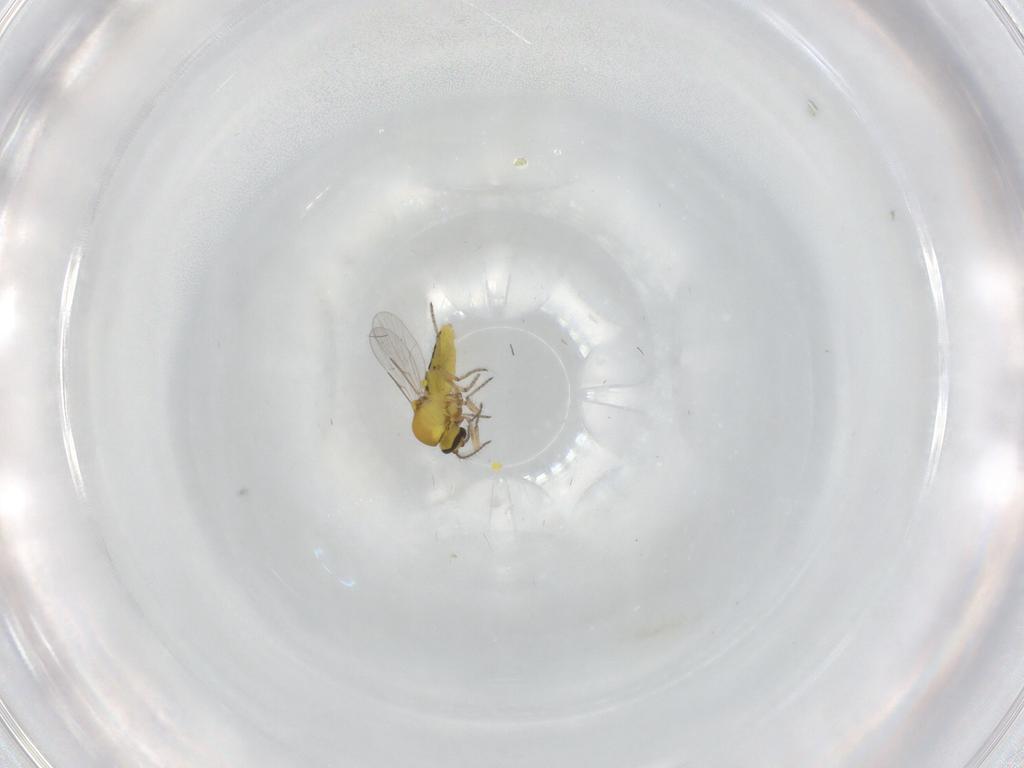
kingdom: Animalia
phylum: Arthropoda
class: Insecta
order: Diptera
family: Ceratopogonidae
